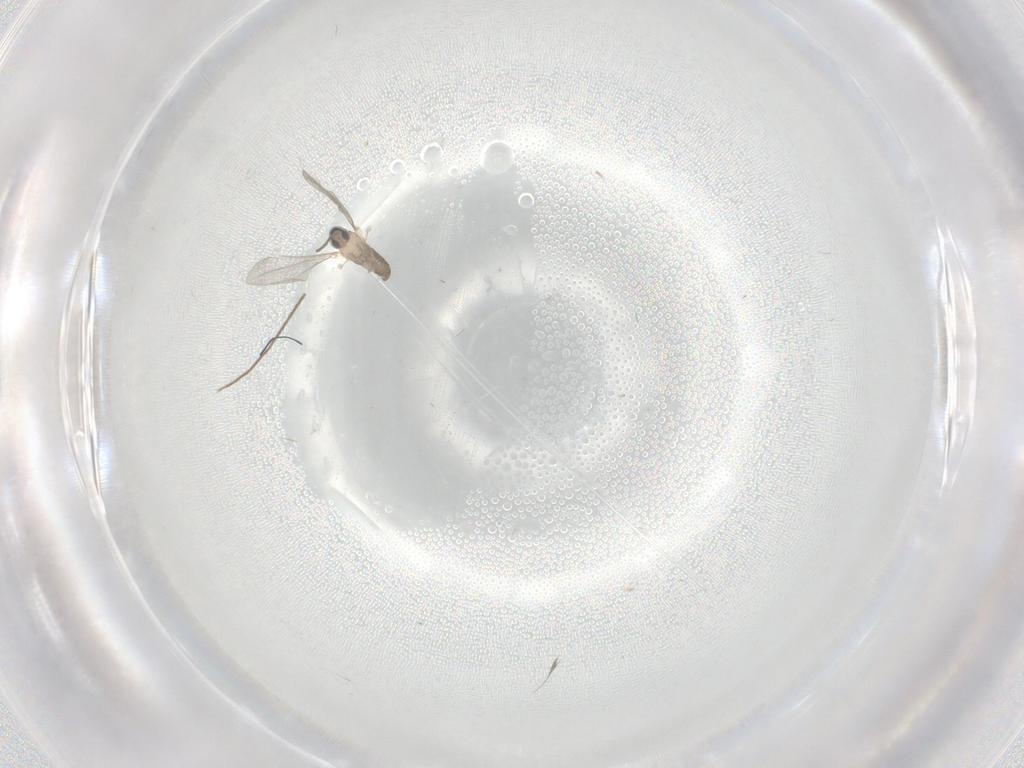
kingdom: Animalia
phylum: Arthropoda
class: Insecta
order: Diptera
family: Chironomidae
